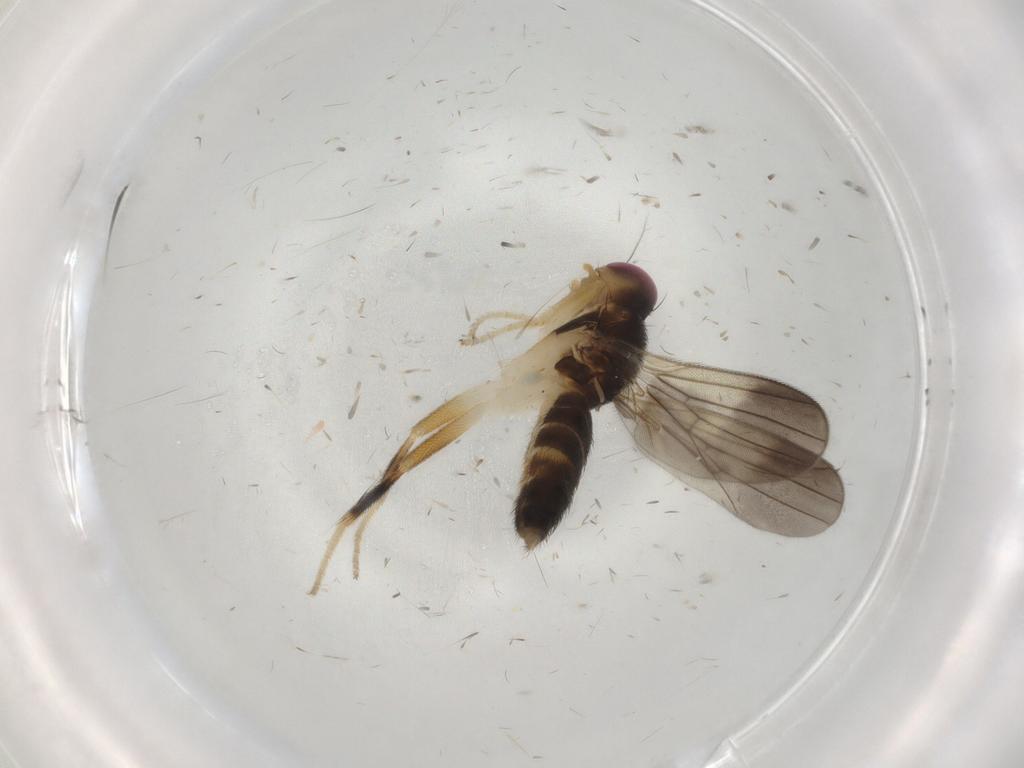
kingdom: Animalia
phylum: Arthropoda
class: Insecta
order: Diptera
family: Clusiidae
